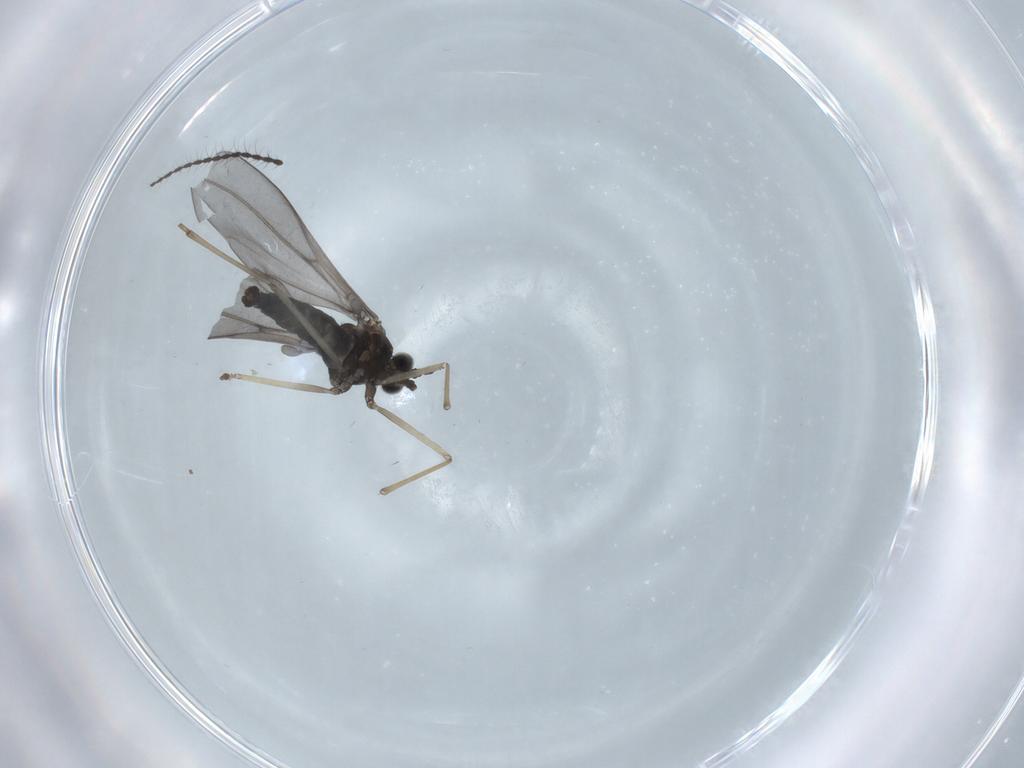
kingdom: Animalia
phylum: Arthropoda
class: Insecta
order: Diptera
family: Cecidomyiidae
